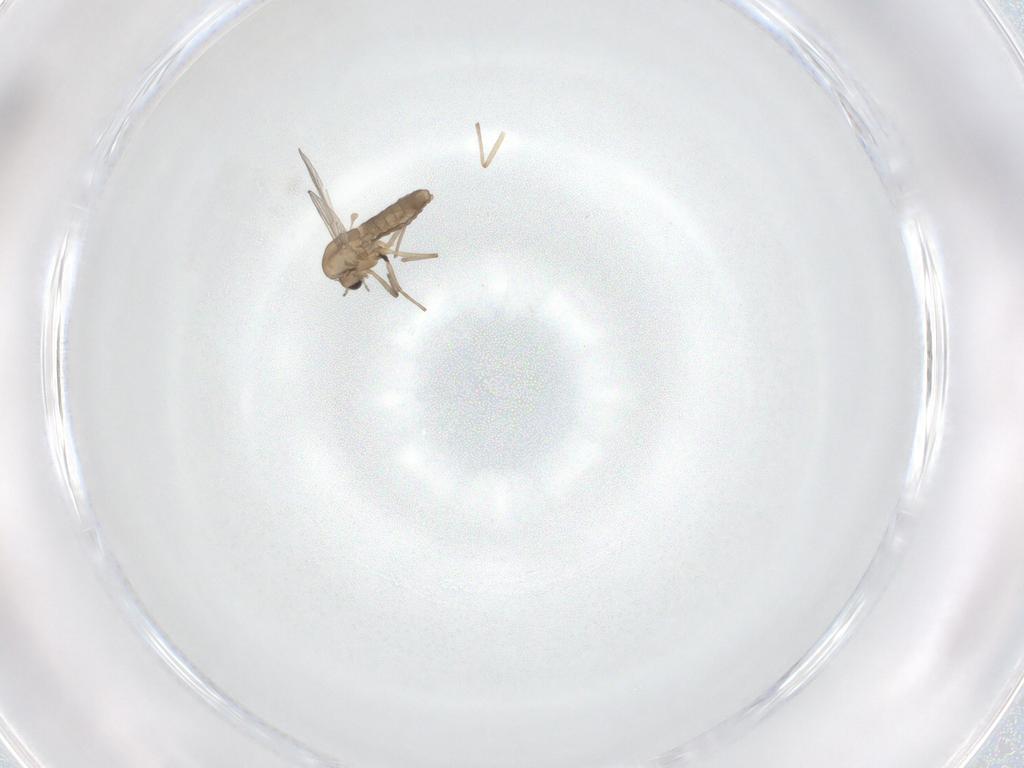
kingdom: Animalia
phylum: Arthropoda
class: Insecta
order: Diptera
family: Chironomidae
